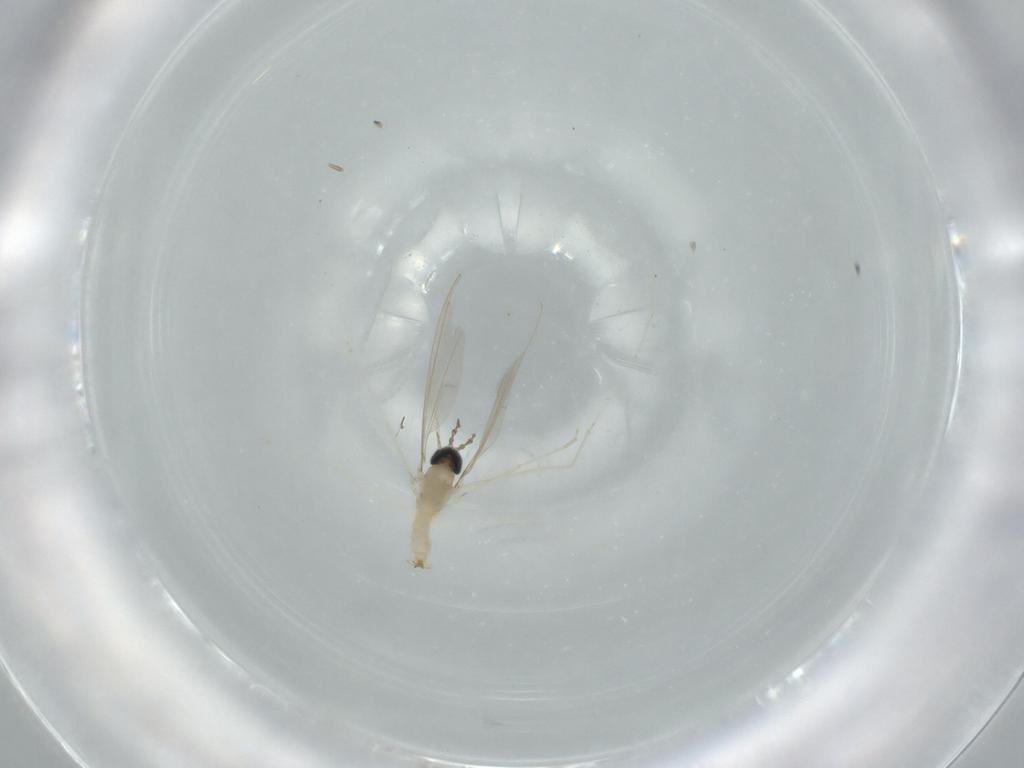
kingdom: Animalia
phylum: Arthropoda
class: Insecta
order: Diptera
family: Cecidomyiidae
